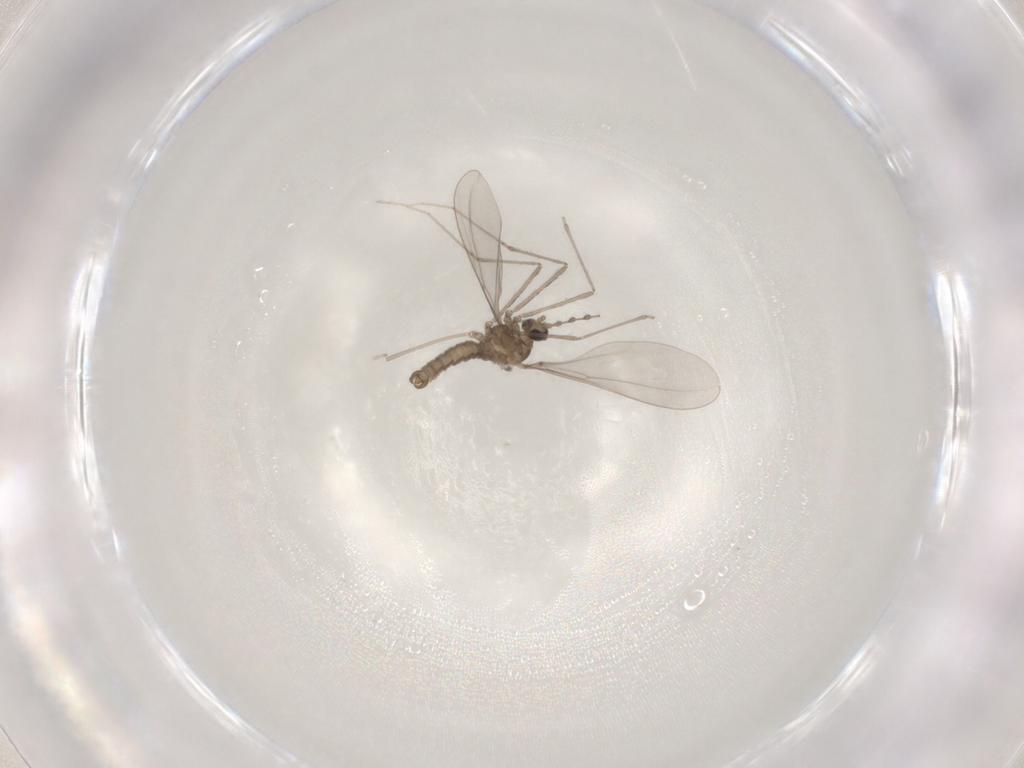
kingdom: Animalia
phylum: Arthropoda
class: Insecta
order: Diptera
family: Cecidomyiidae
